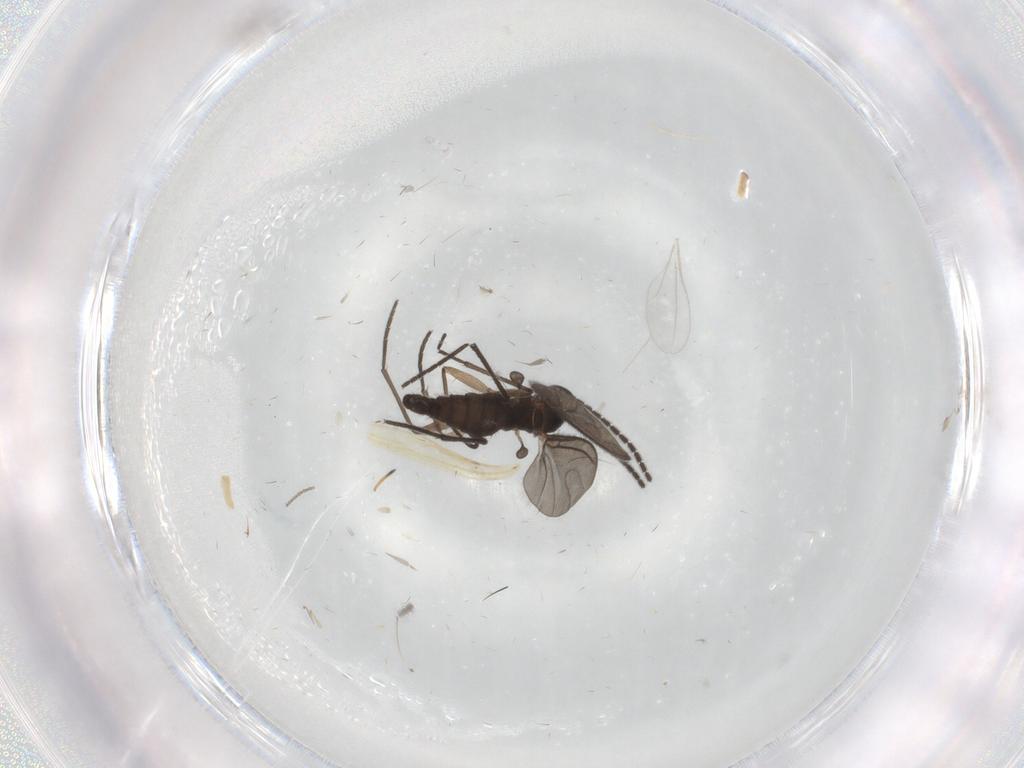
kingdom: Animalia
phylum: Arthropoda
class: Insecta
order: Diptera
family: Sciaridae
